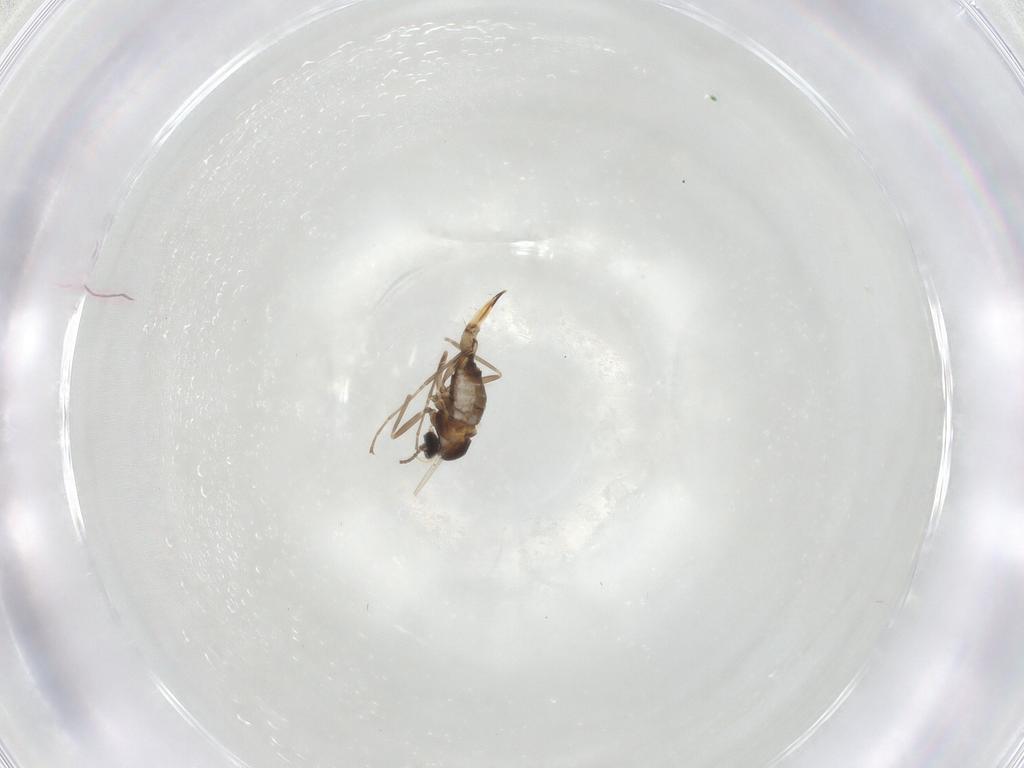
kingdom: Animalia
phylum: Arthropoda
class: Insecta
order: Diptera
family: Cecidomyiidae
